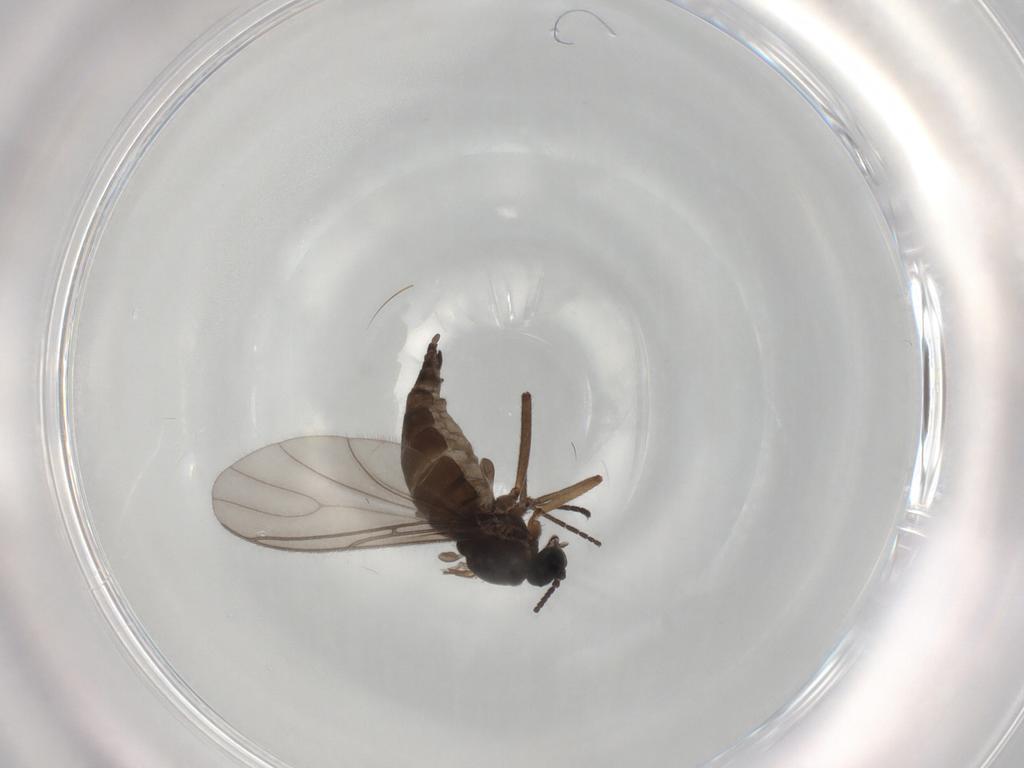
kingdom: Animalia
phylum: Arthropoda
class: Insecta
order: Diptera
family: Sciaridae
